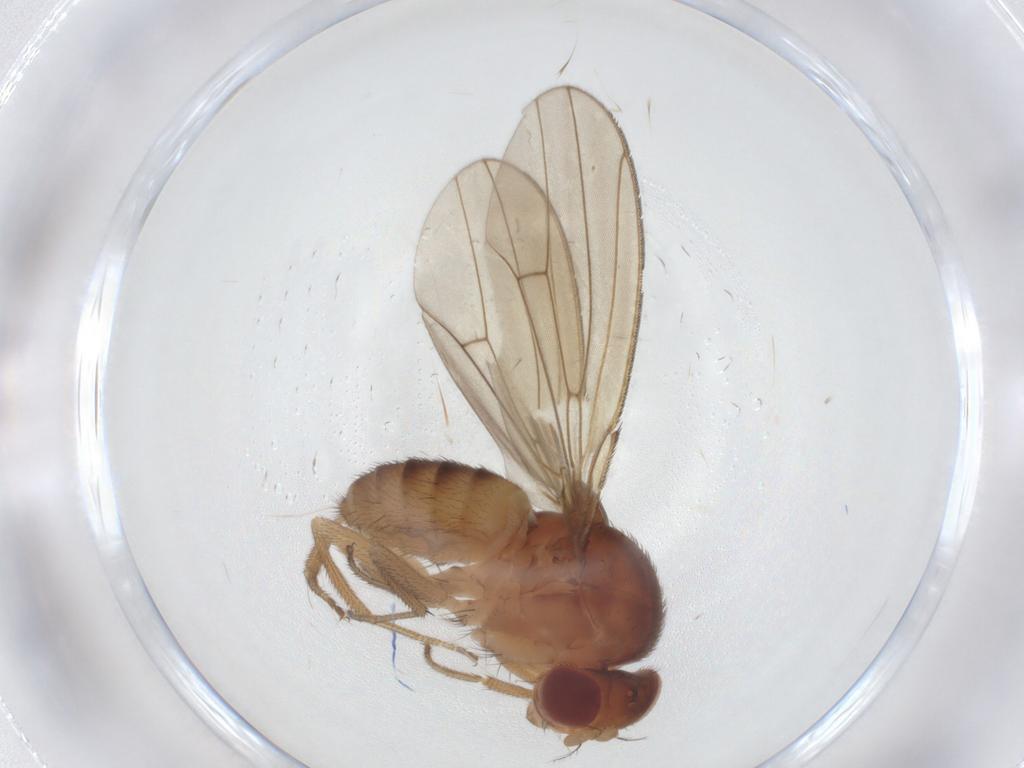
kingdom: Animalia
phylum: Arthropoda
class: Insecta
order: Diptera
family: Drosophilidae
